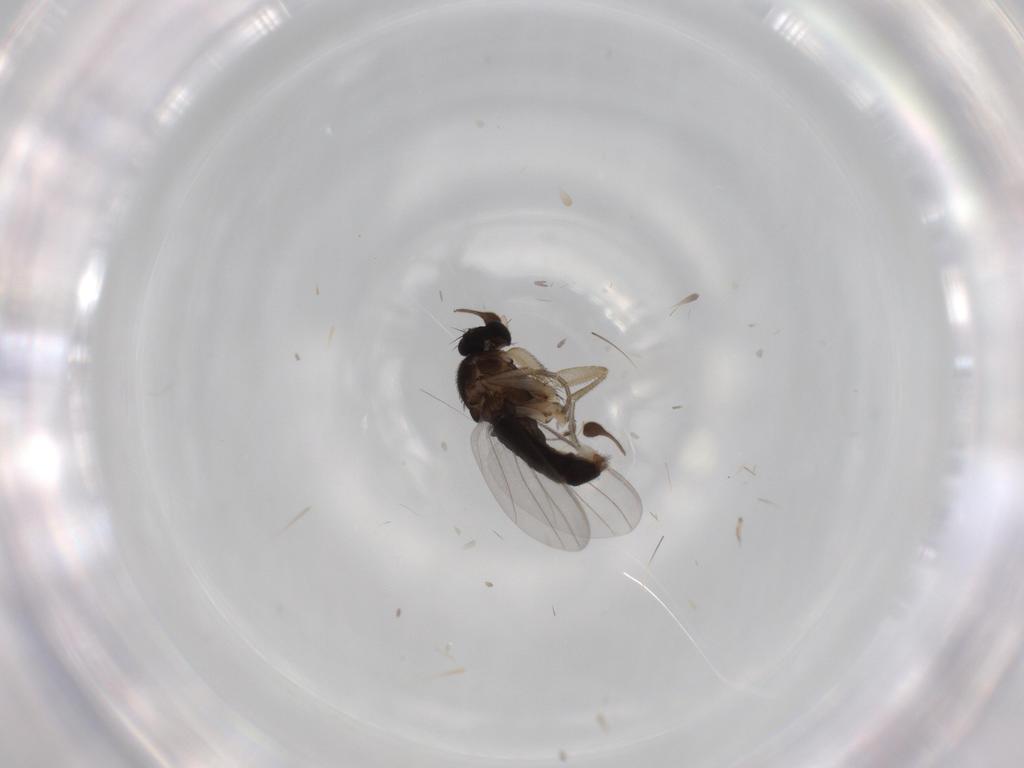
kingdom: Animalia
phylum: Arthropoda
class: Insecta
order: Diptera
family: Phoridae
